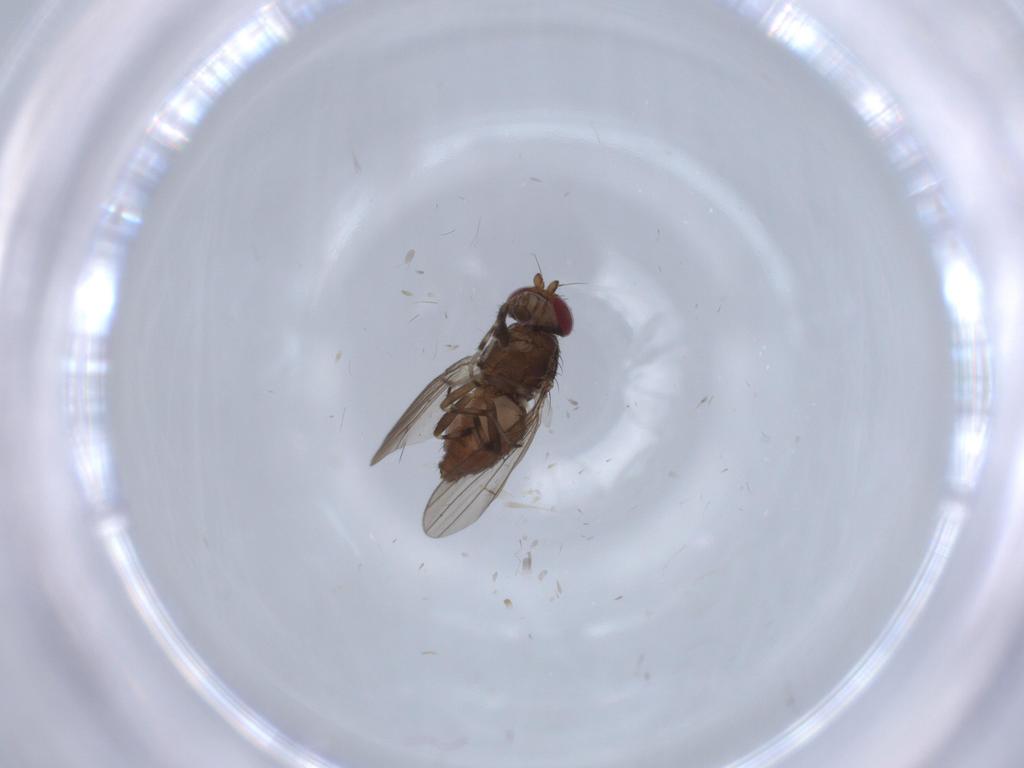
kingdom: Animalia
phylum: Arthropoda
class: Insecta
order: Diptera
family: Heleomyzidae
